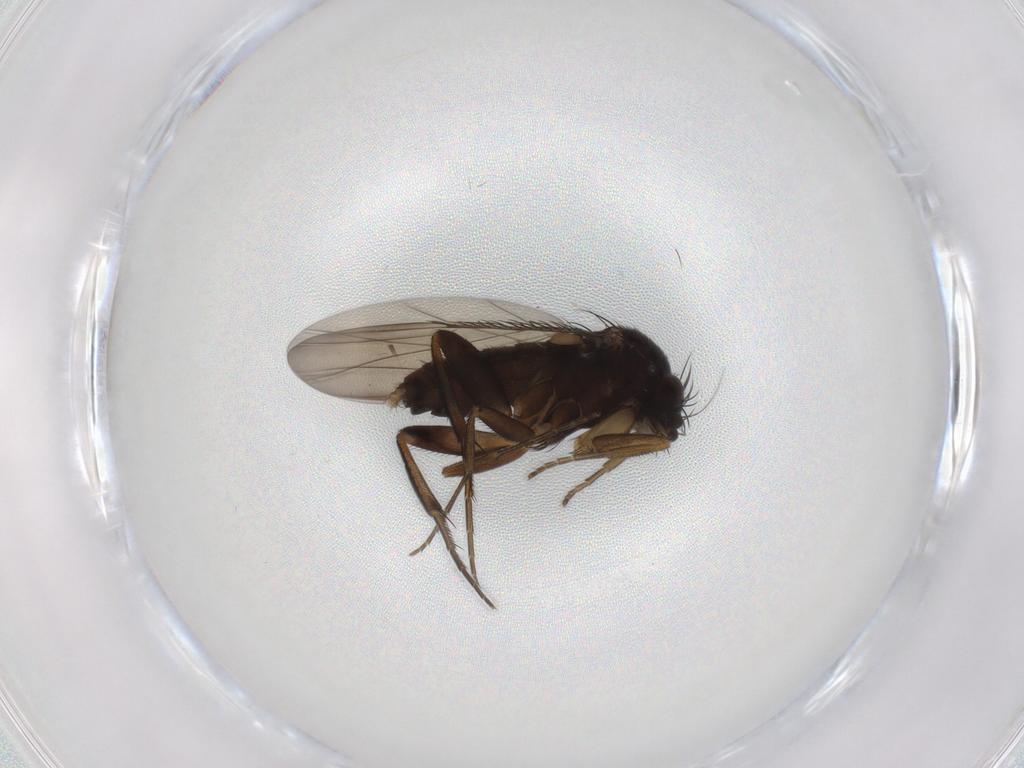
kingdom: Animalia
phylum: Arthropoda
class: Insecta
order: Diptera
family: Phoridae
